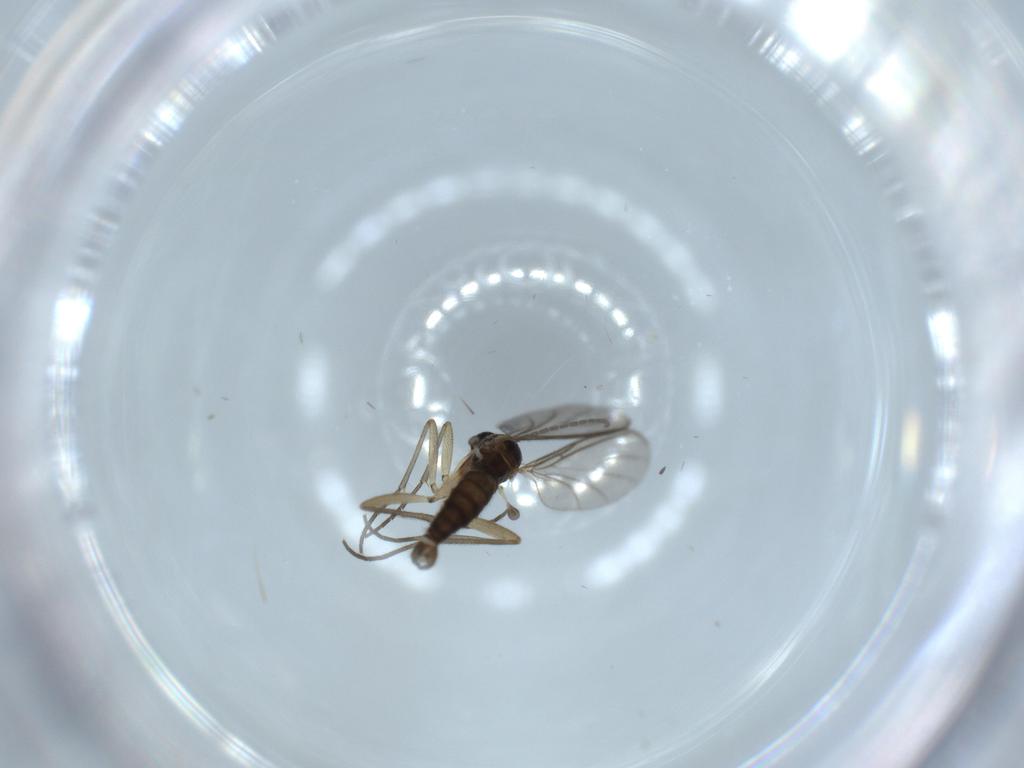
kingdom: Animalia
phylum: Arthropoda
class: Insecta
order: Diptera
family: Sciaridae
